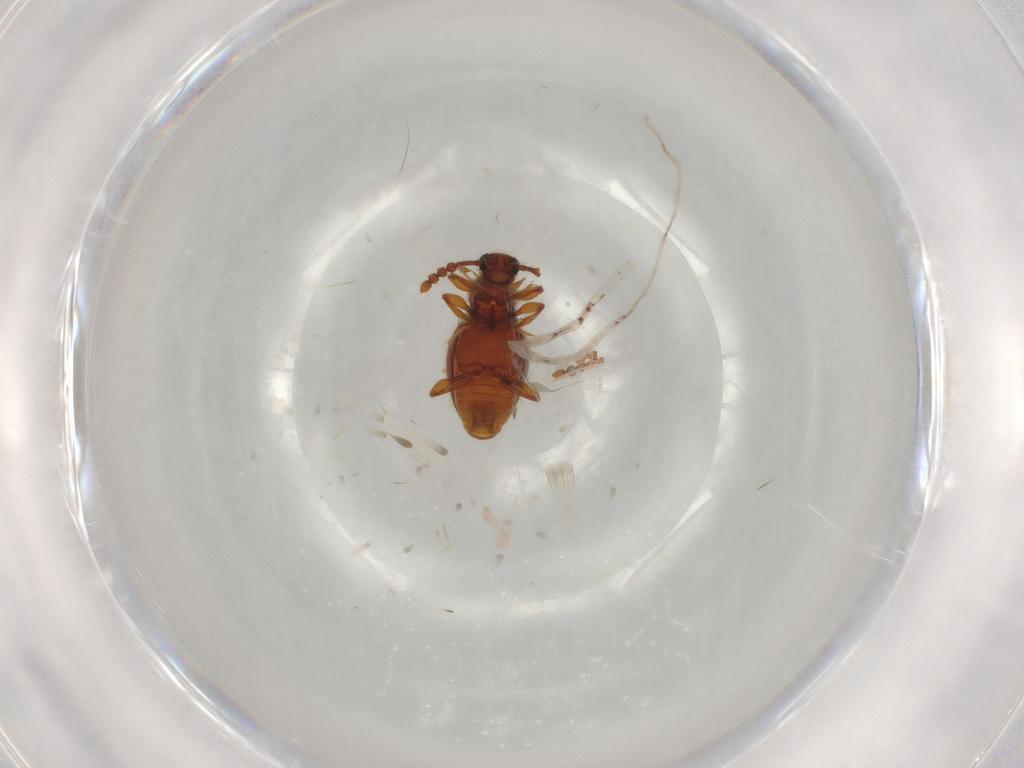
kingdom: Animalia
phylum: Arthropoda
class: Insecta
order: Coleoptera
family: Staphylinidae
